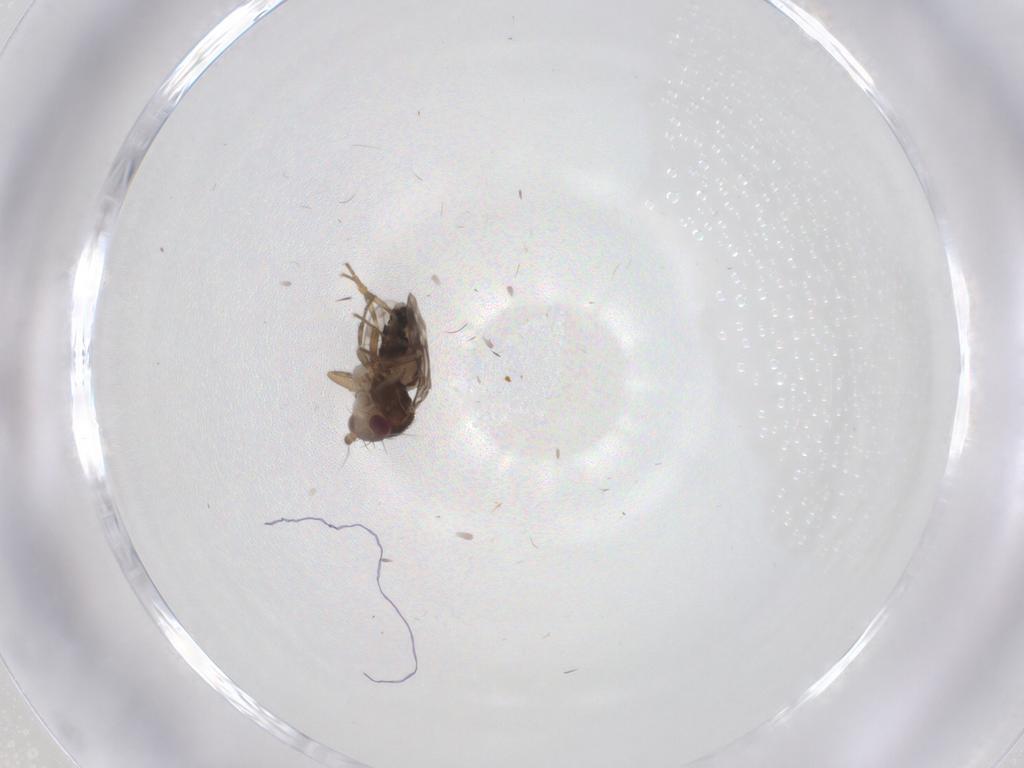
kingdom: Animalia
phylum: Arthropoda
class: Insecta
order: Diptera
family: Sphaeroceridae
